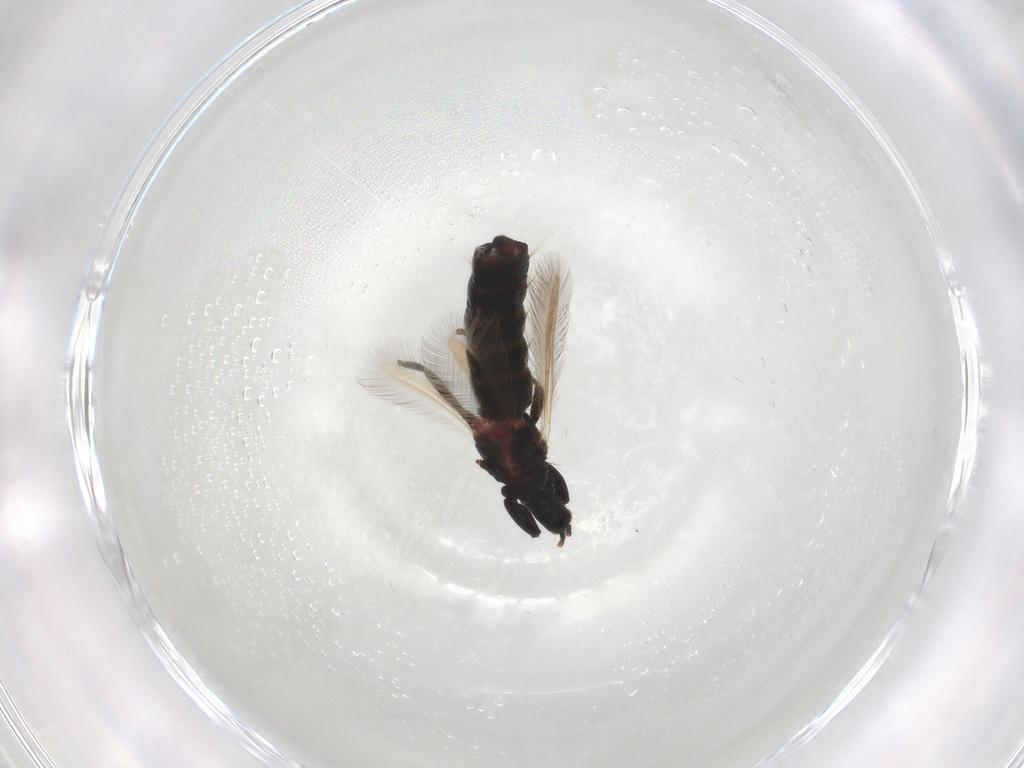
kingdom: Animalia
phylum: Arthropoda
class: Insecta
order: Thysanoptera
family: Phlaeothripidae
